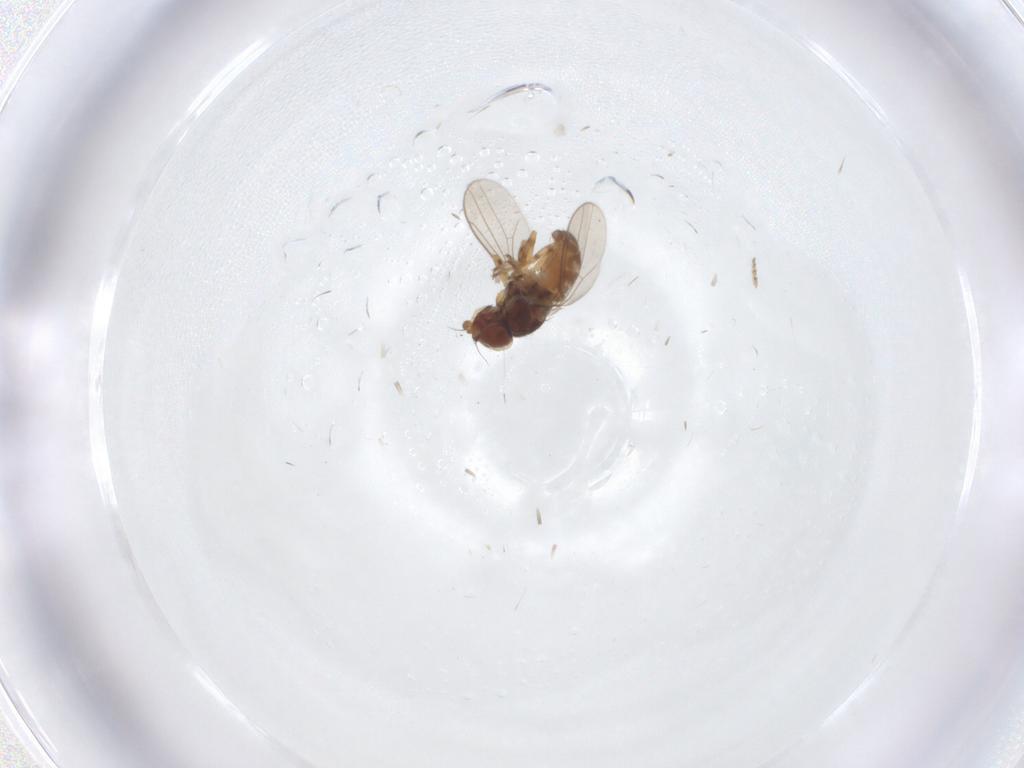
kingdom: Animalia
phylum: Arthropoda
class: Insecta
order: Diptera
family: Chloropidae
